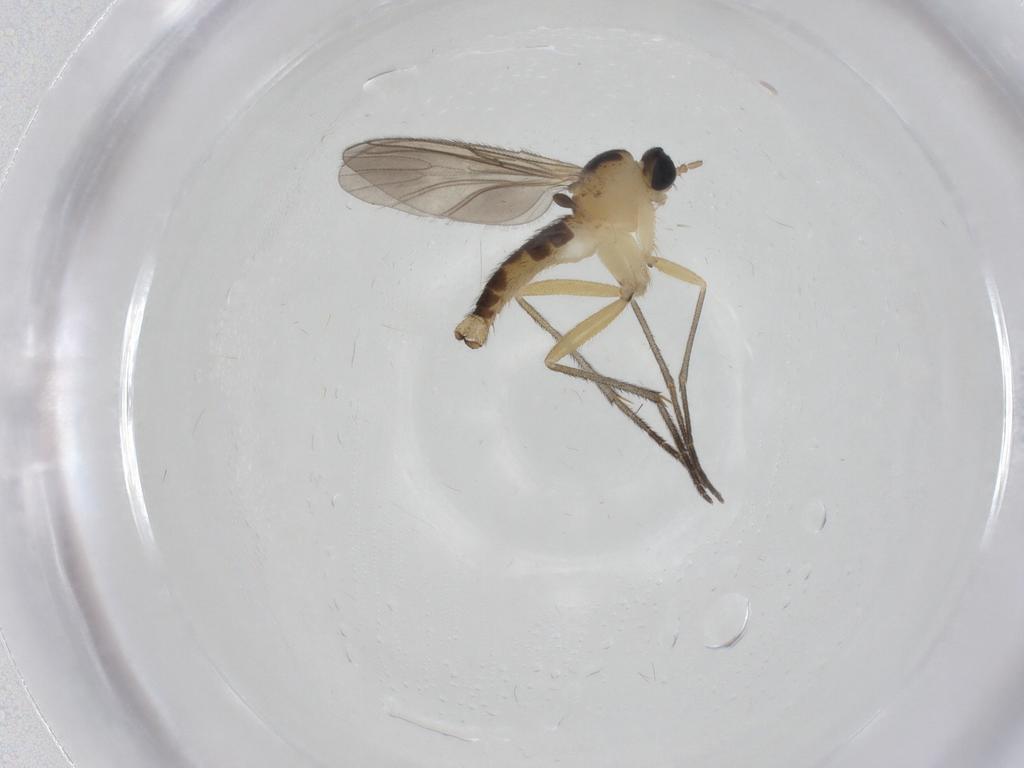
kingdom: Animalia
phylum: Arthropoda
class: Insecta
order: Diptera
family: Sciaridae
